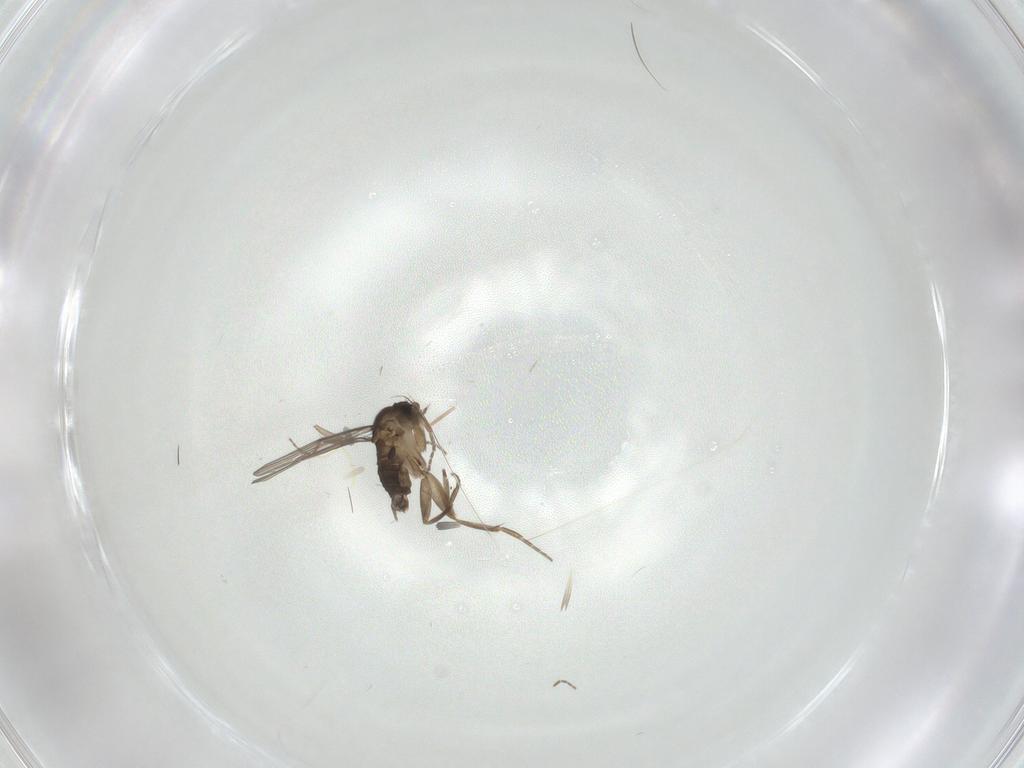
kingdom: Animalia
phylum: Arthropoda
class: Insecta
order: Diptera
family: Phoridae
